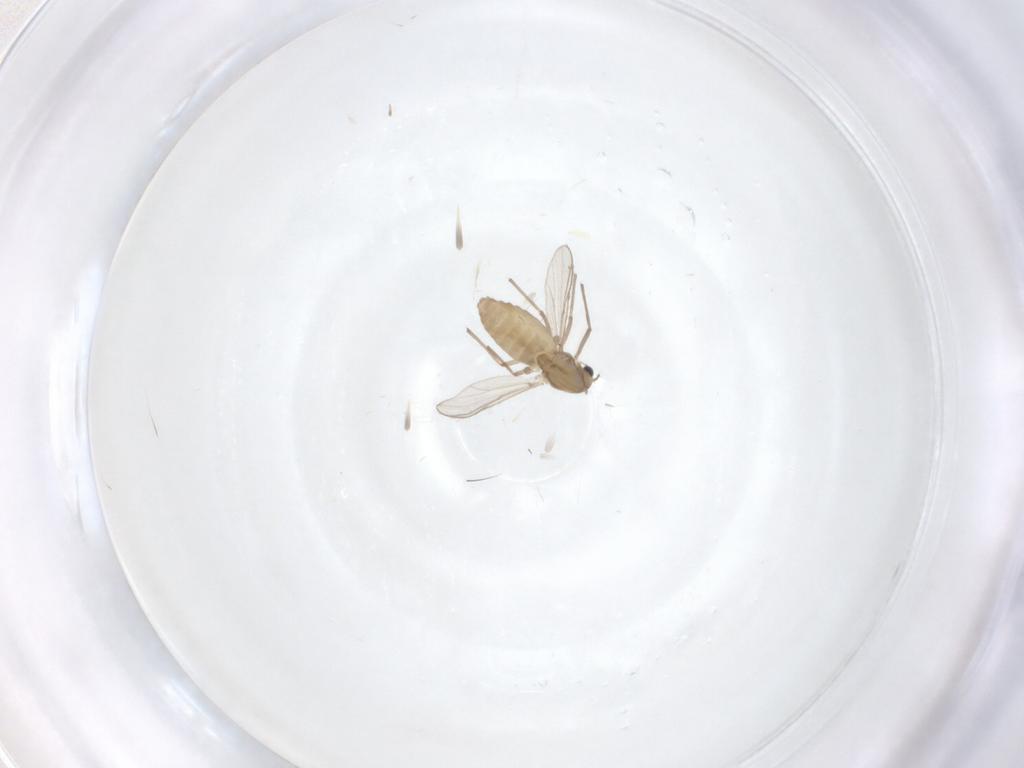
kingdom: Animalia
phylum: Arthropoda
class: Insecta
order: Diptera
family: Chironomidae
